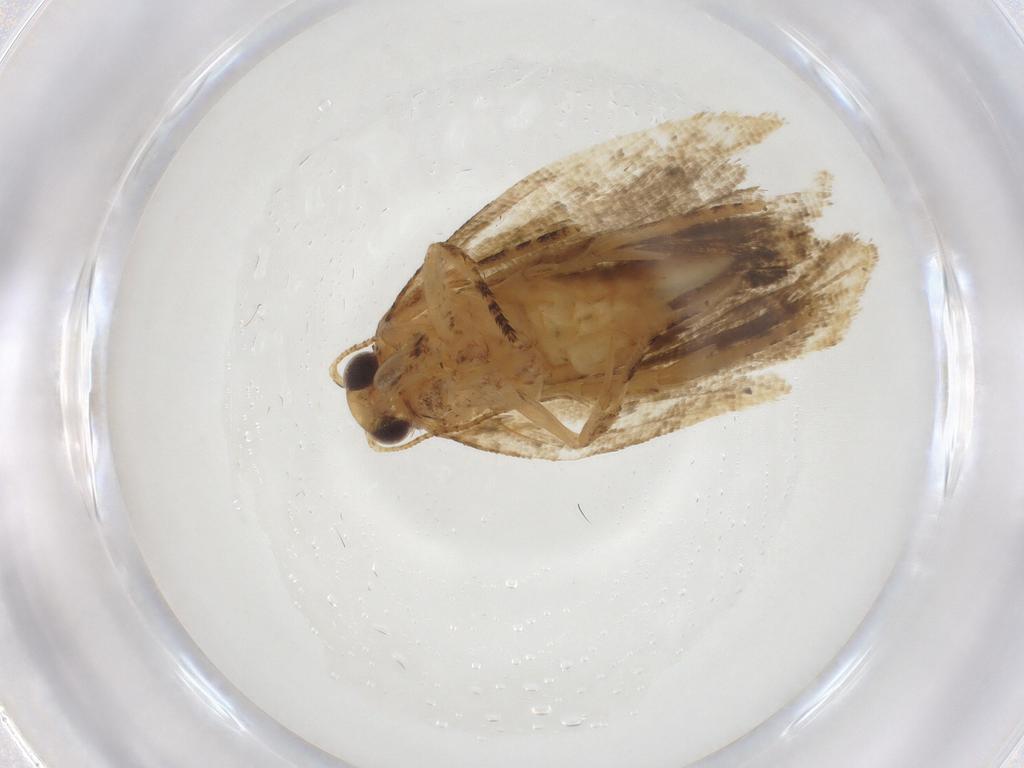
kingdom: Animalia
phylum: Arthropoda
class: Insecta
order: Lepidoptera
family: Notodontidae
